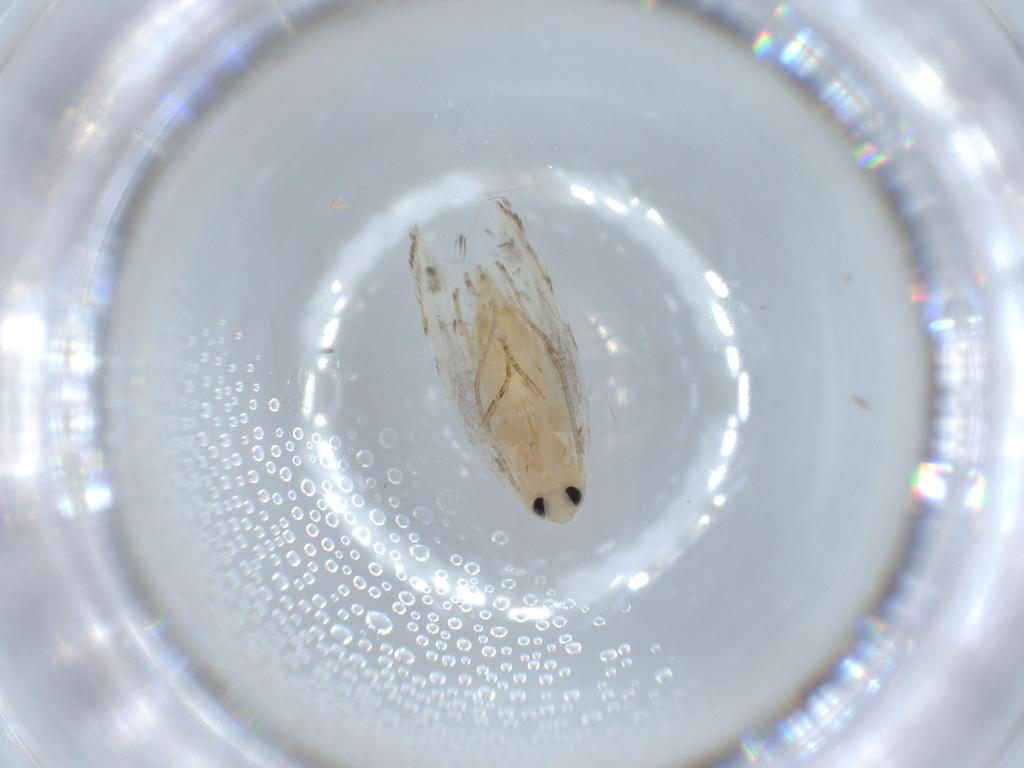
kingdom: Animalia
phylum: Arthropoda
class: Insecta
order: Lepidoptera
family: Lyonetiidae
